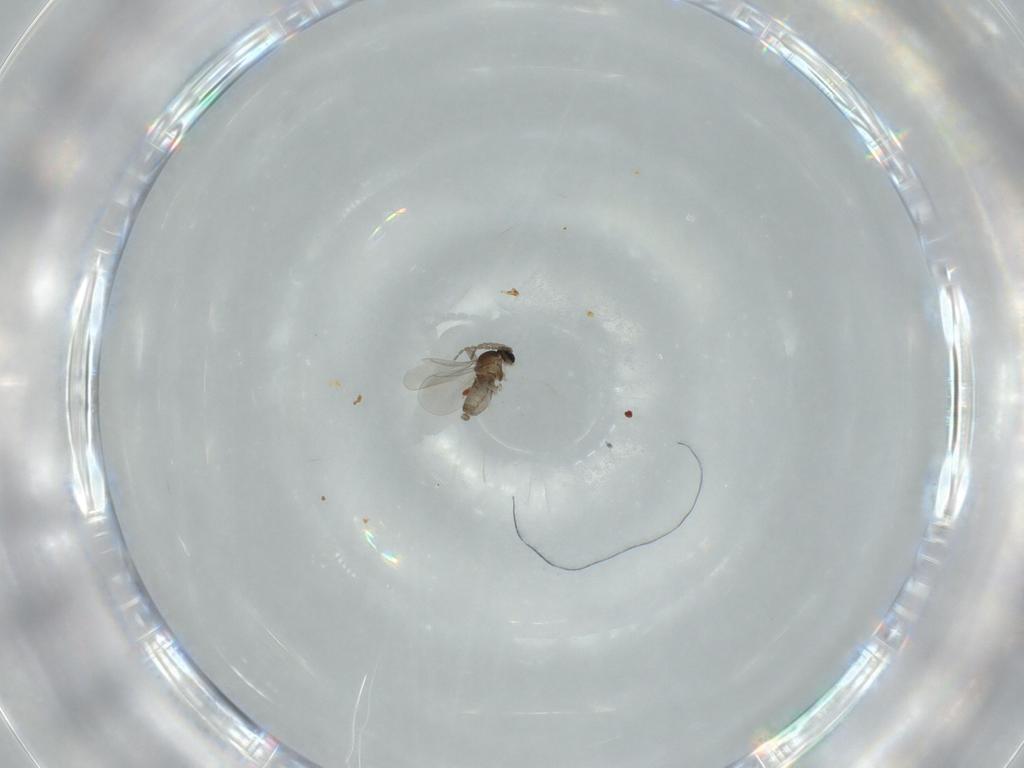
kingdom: Animalia
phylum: Arthropoda
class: Insecta
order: Diptera
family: Cecidomyiidae
